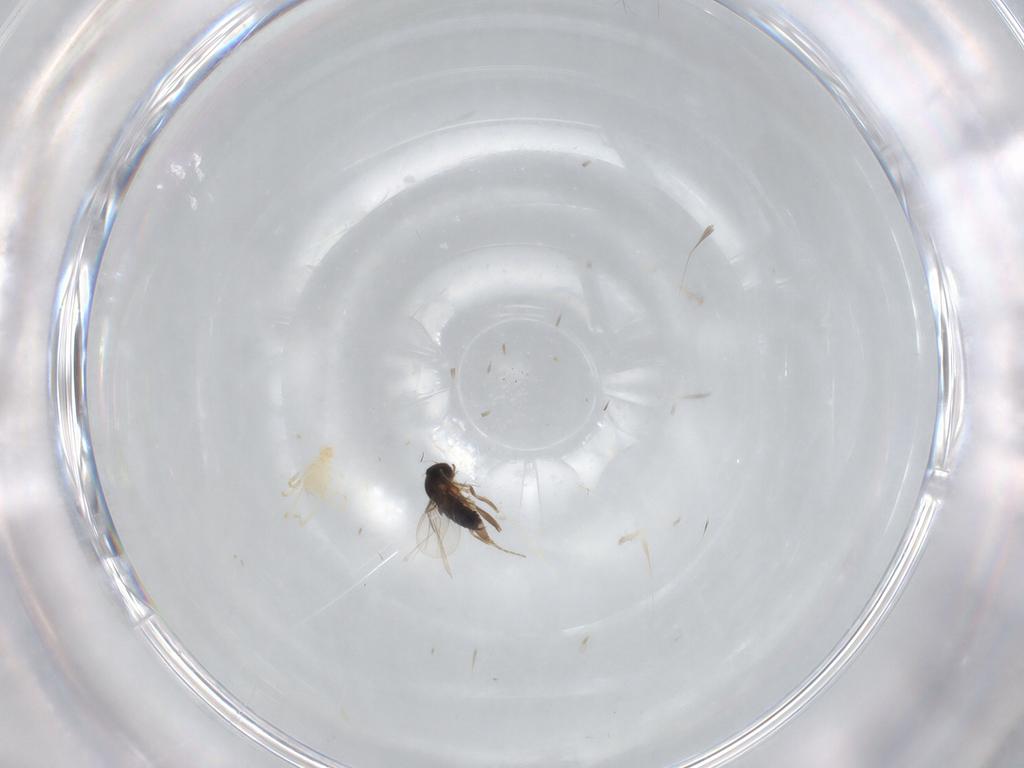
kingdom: Animalia
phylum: Arthropoda
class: Insecta
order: Diptera
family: Phoridae
